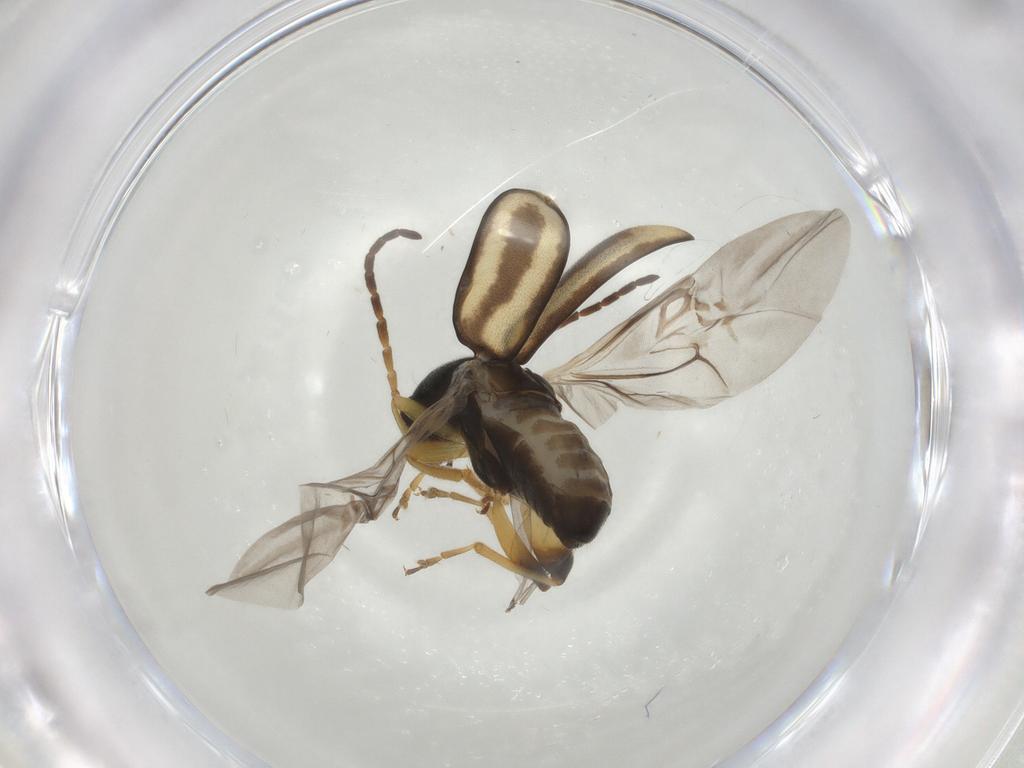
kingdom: Animalia
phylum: Arthropoda
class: Insecta
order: Coleoptera
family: Chrysomelidae
